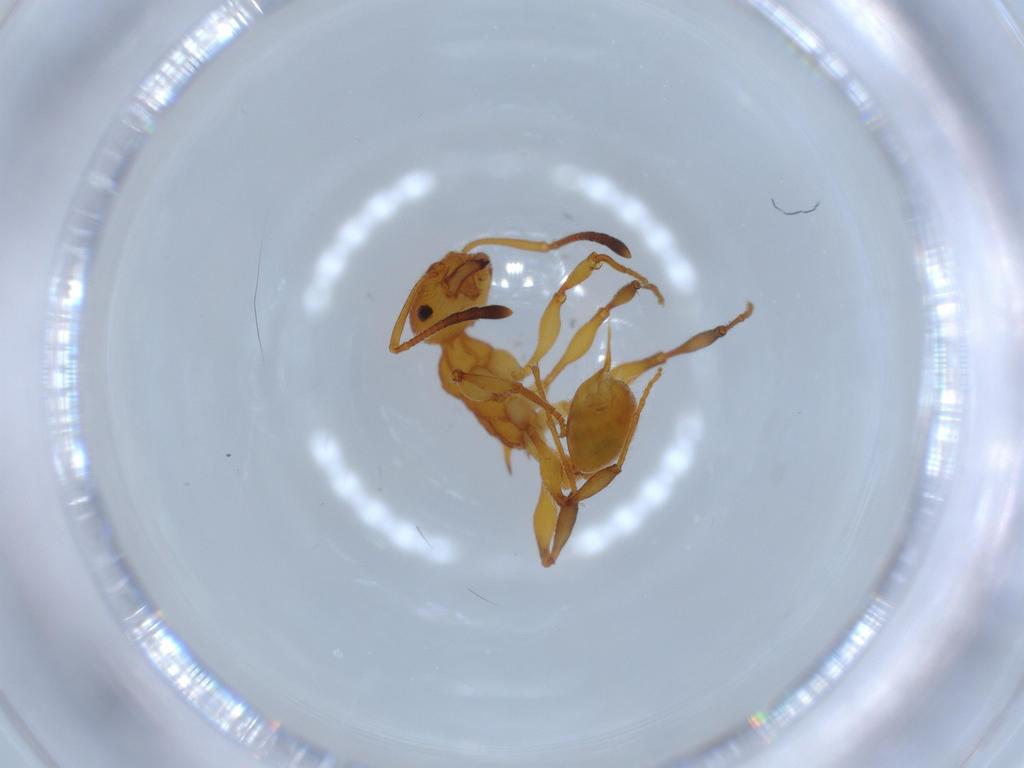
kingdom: Animalia
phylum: Arthropoda
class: Insecta
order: Hymenoptera
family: Formicidae
